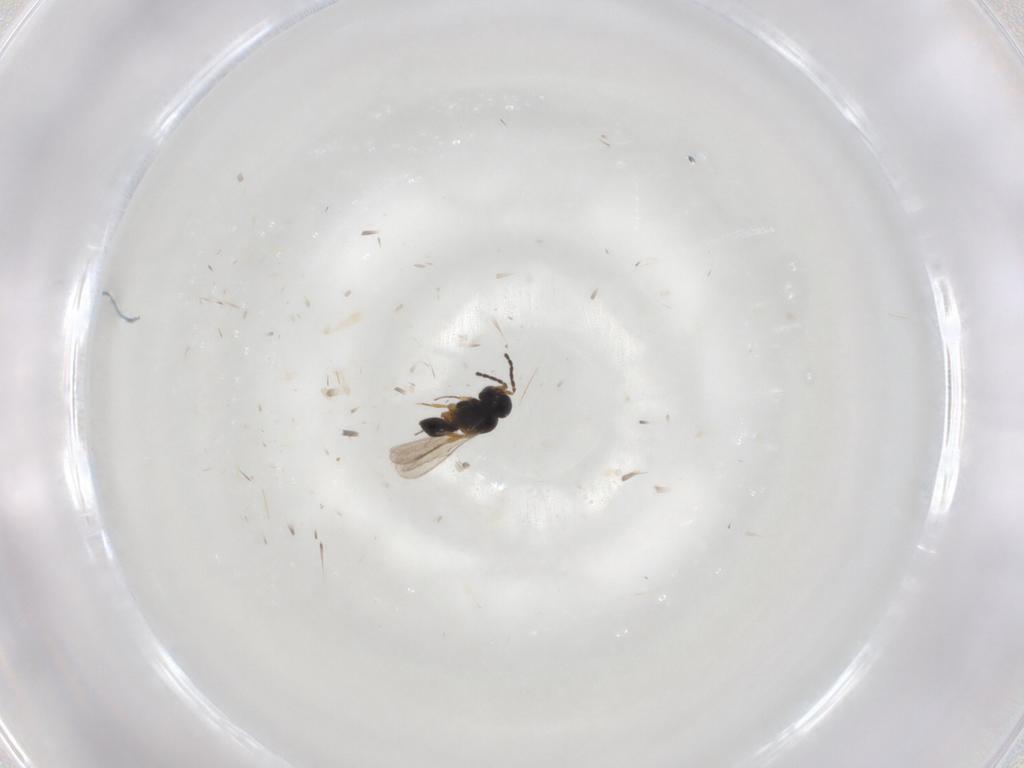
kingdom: Animalia
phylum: Arthropoda
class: Insecta
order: Hymenoptera
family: Scelionidae
